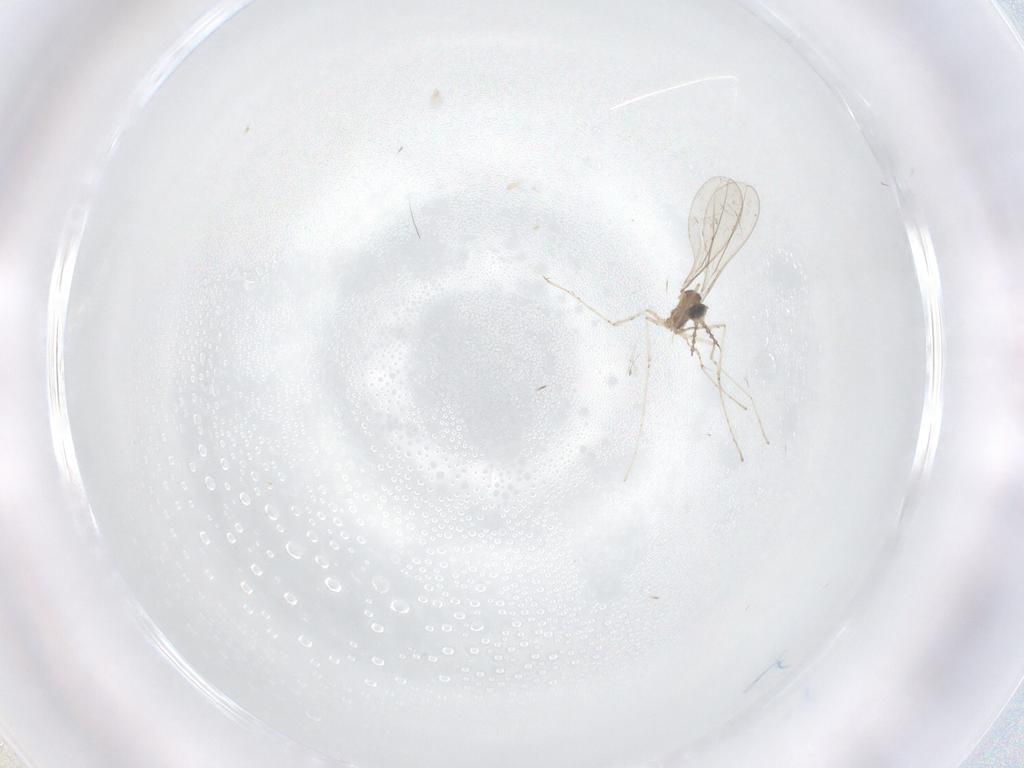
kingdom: Animalia
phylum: Arthropoda
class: Insecta
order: Diptera
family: Cecidomyiidae
